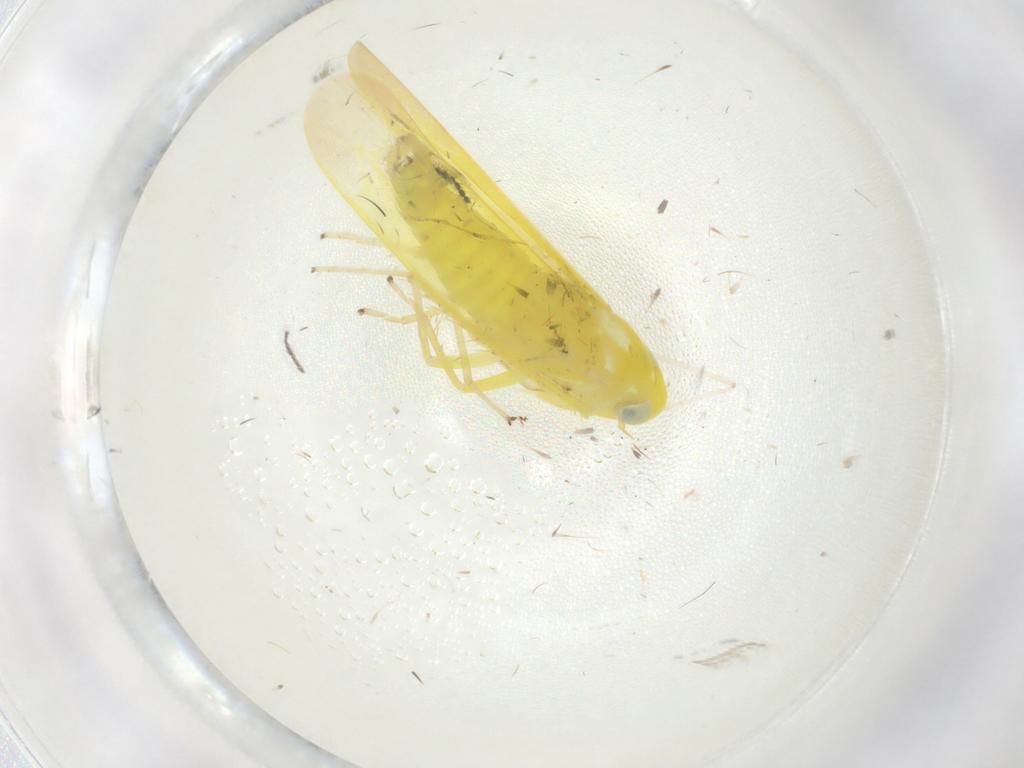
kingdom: Animalia
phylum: Arthropoda
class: Insecta
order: Hemiptera
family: Cicadellidae
